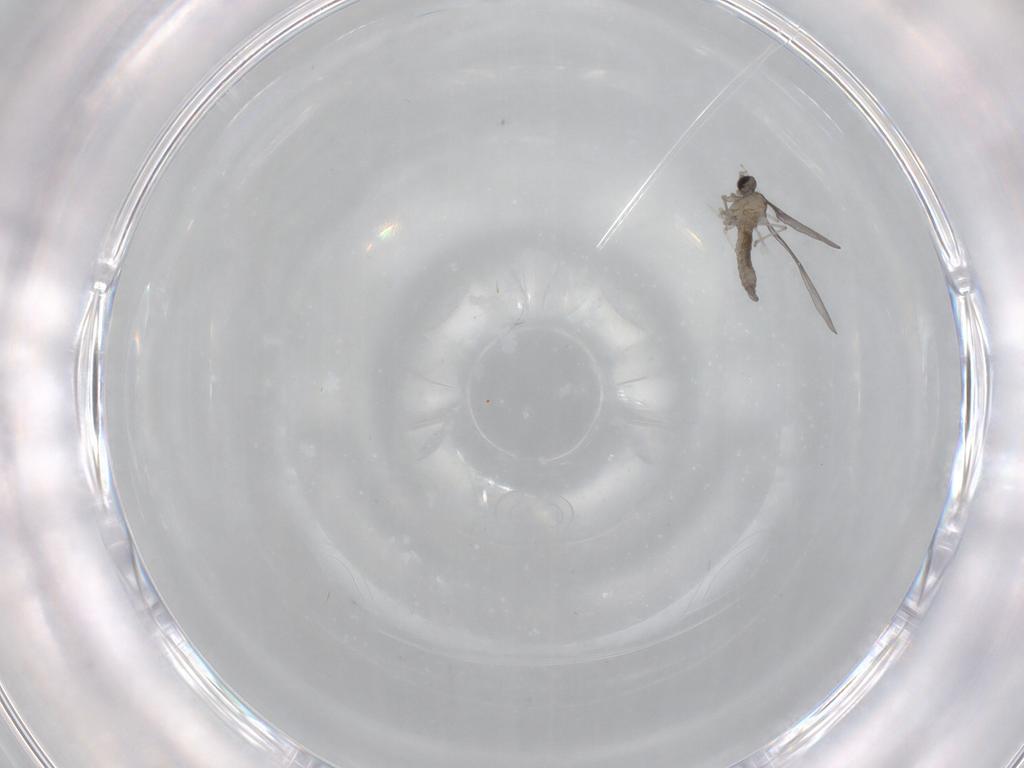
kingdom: Animalia
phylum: Arthropoda
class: Insecta
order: Diptera
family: Cecidomyiidae
